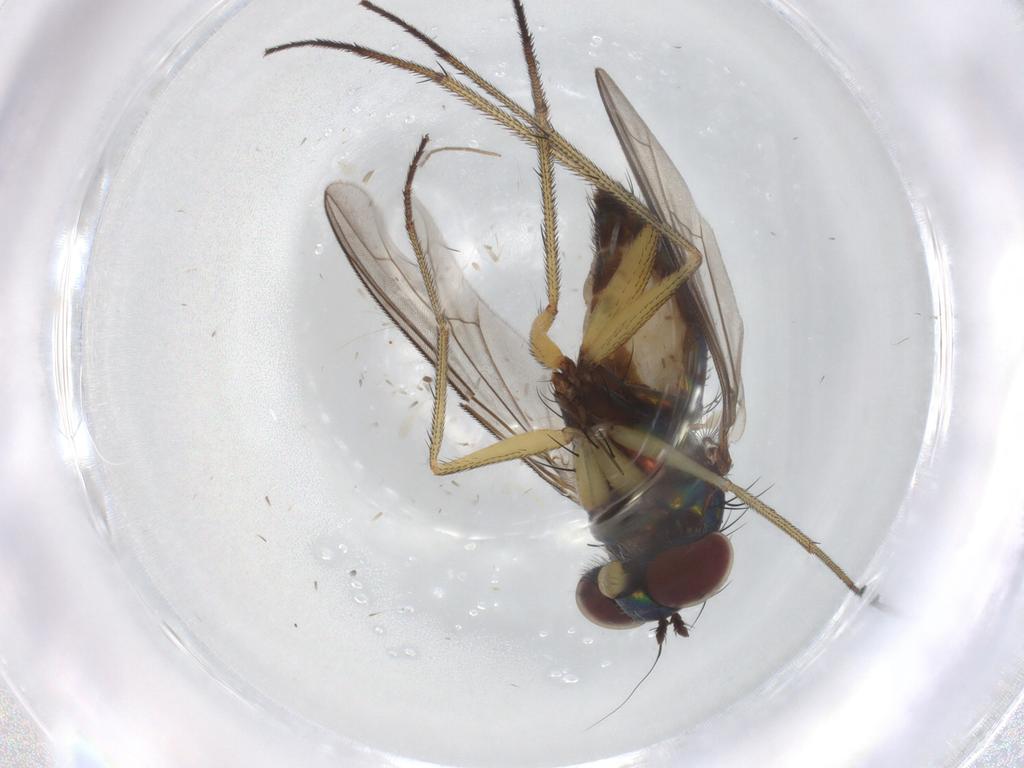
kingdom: Animalia
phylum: Arthropoda
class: Insecta
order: Diptera
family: Dolichopodidae
